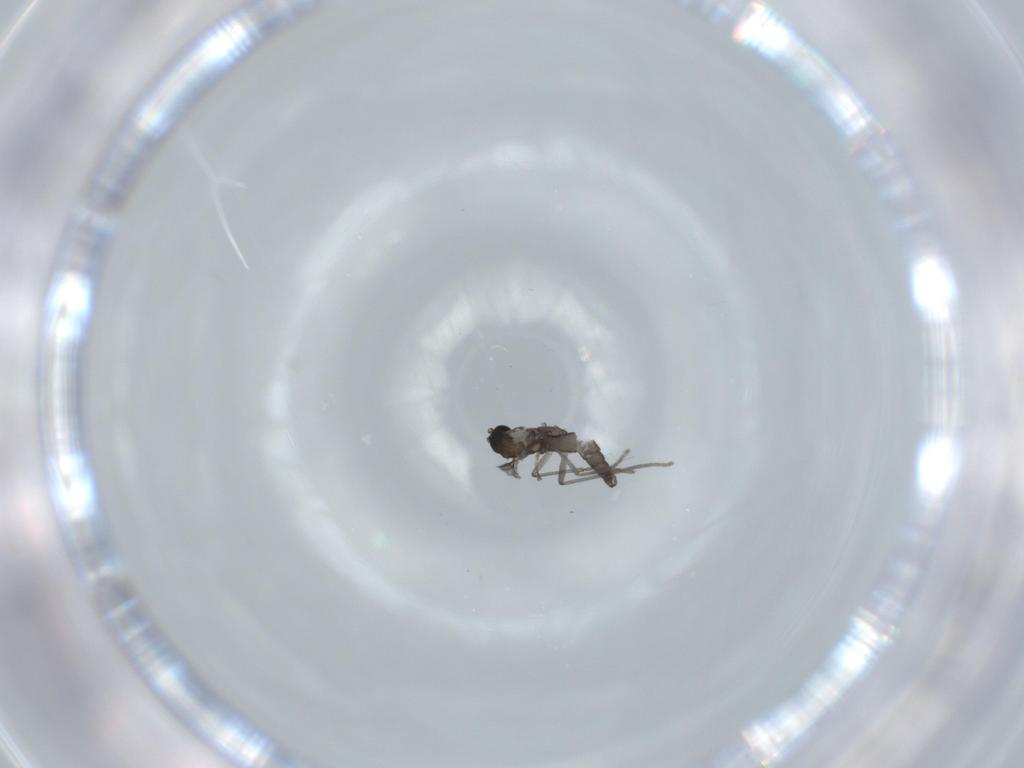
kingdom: Animalia
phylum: Arthropoda
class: Insecta
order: Diptera
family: Sciaridae
